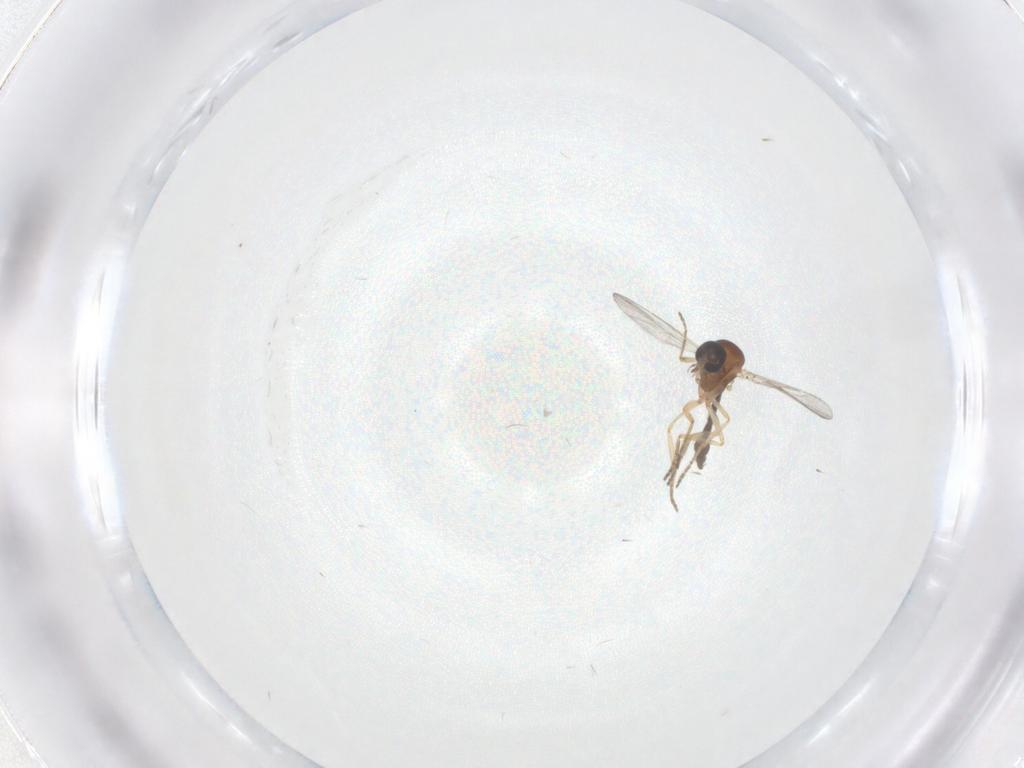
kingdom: Animalia
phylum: Arthropoda
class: Insecta
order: Diptera
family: Ceratopogonidae
